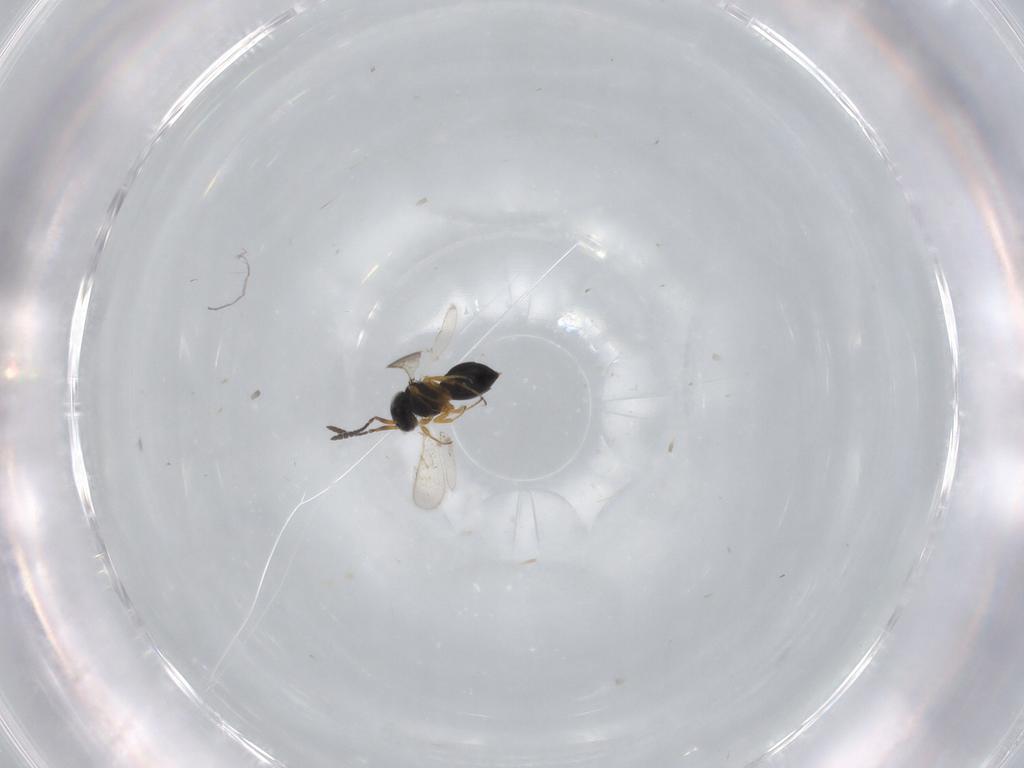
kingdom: Animalia
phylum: Arthropoda
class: Insecta
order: Hymenoptera
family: Scelionidae
